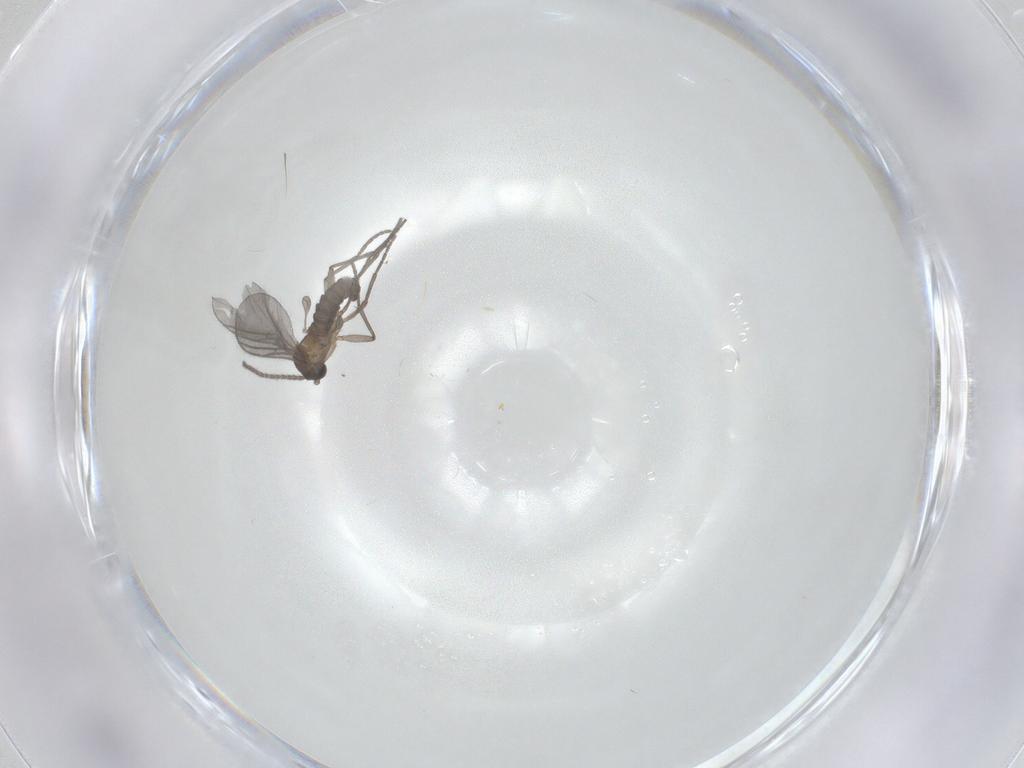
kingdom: Animalia
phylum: Arthropoda
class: Insecta
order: Diptera
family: Sciaridae
